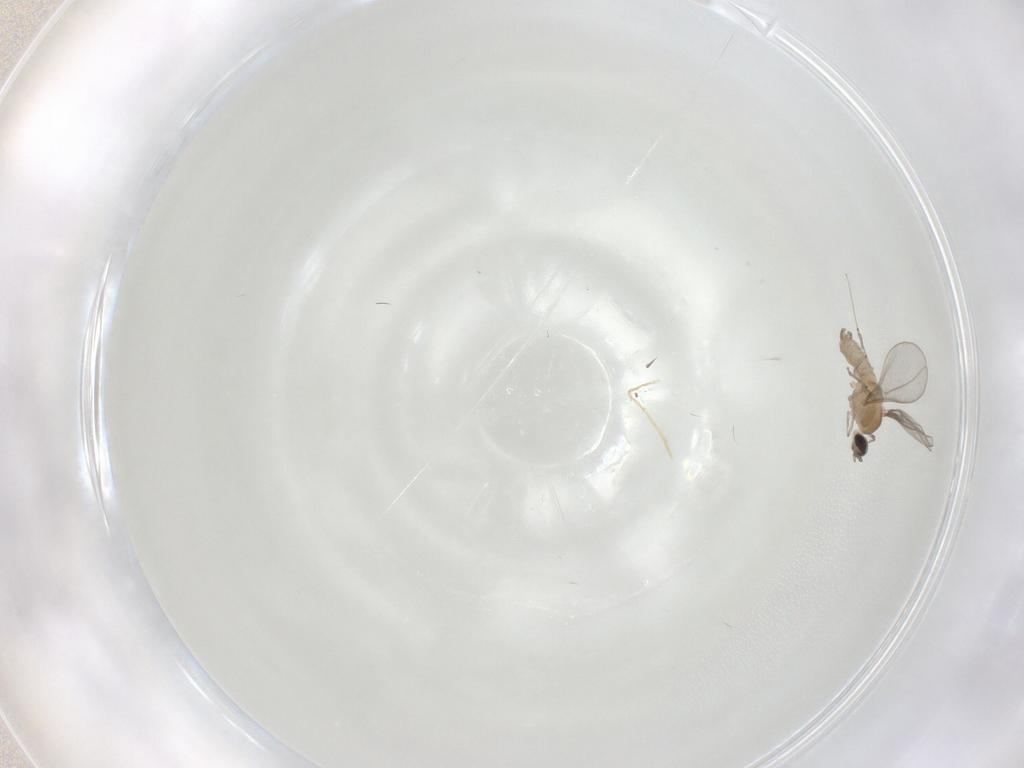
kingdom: Animalia
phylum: Arthropoda
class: Insecta
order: Diptera
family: Cecidomyiidae
